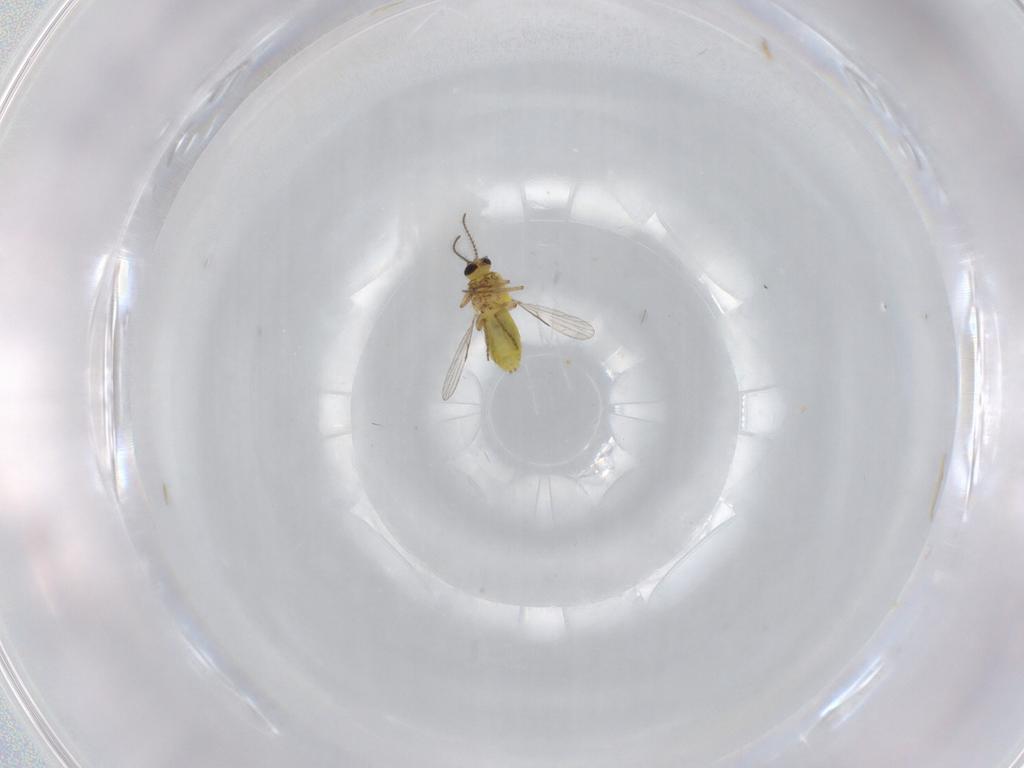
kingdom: Animalia
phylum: Arthropoda
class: Insecta
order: Diptera
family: Ceratopogonidae
